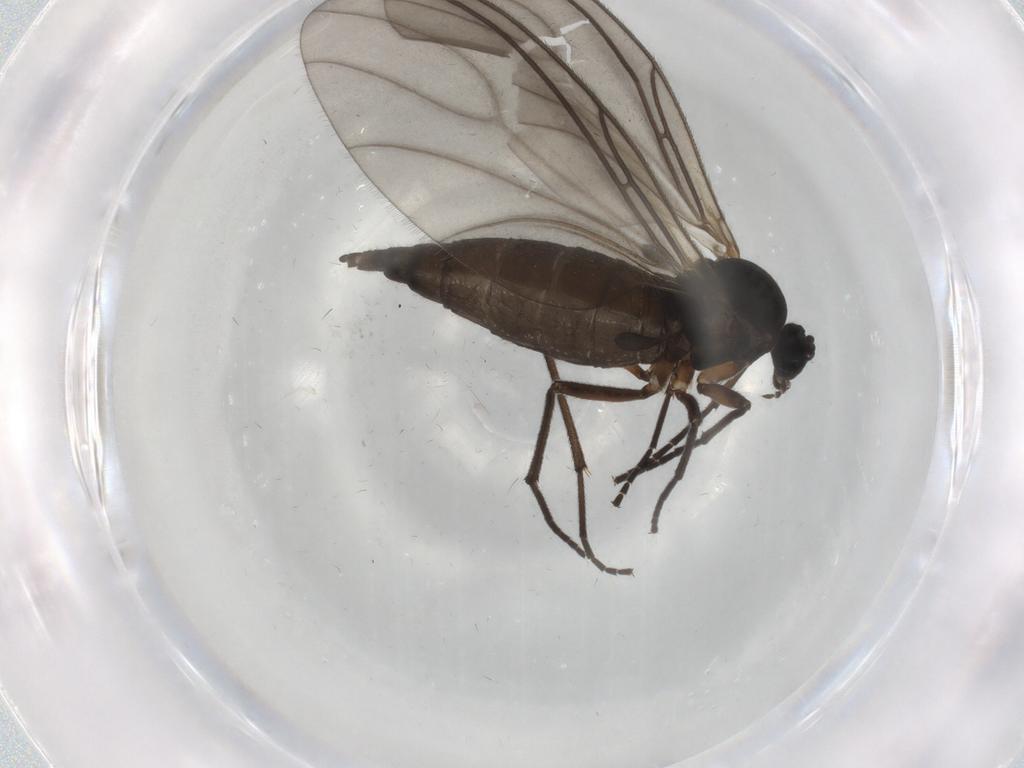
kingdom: Animalia
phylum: Arthropoda
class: Insecta
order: Diptera
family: Sciaridae
